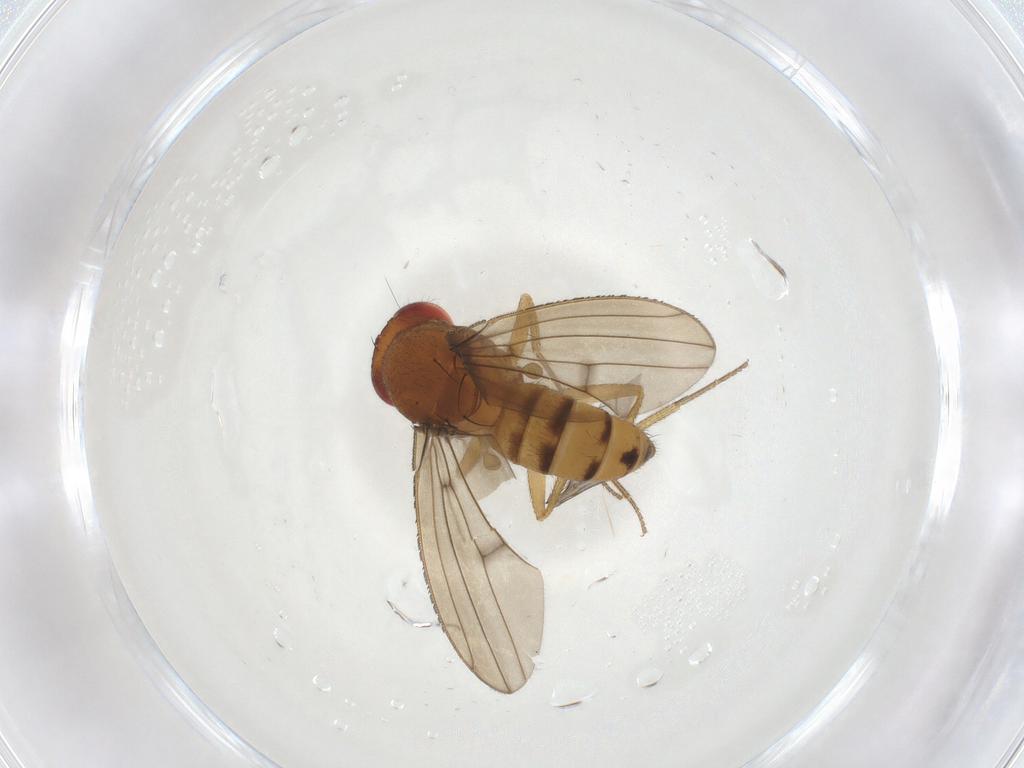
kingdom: Animalia
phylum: Arthropoda
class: Insecta
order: Diptera
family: Drosophilidae
